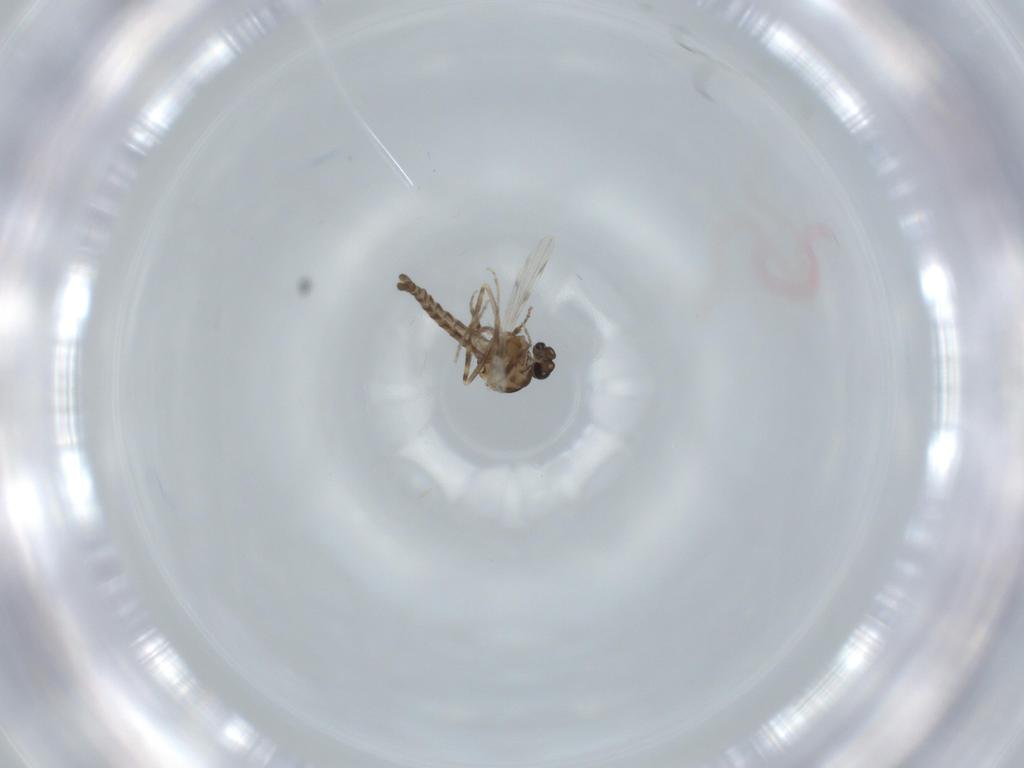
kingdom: Animalia
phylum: Arthropoda
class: Insecta
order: Diptera
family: Ceratopogonidae
